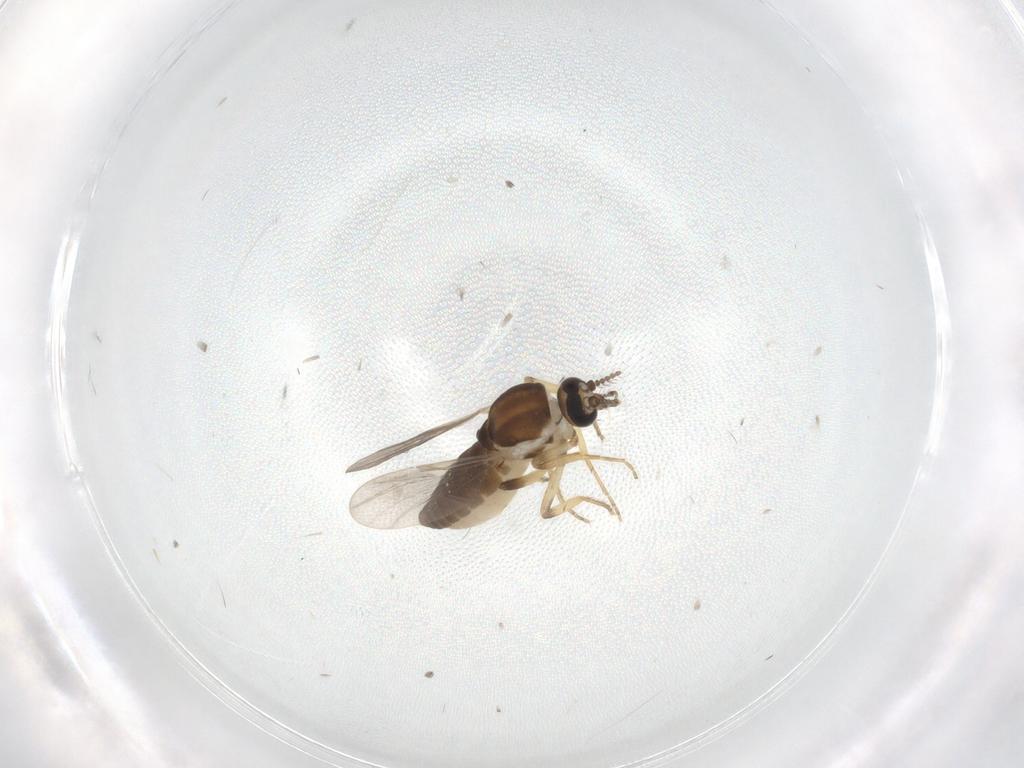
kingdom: Animalia
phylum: Arthropoda
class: Insecta
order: Diptera
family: Ceratopogonidae
